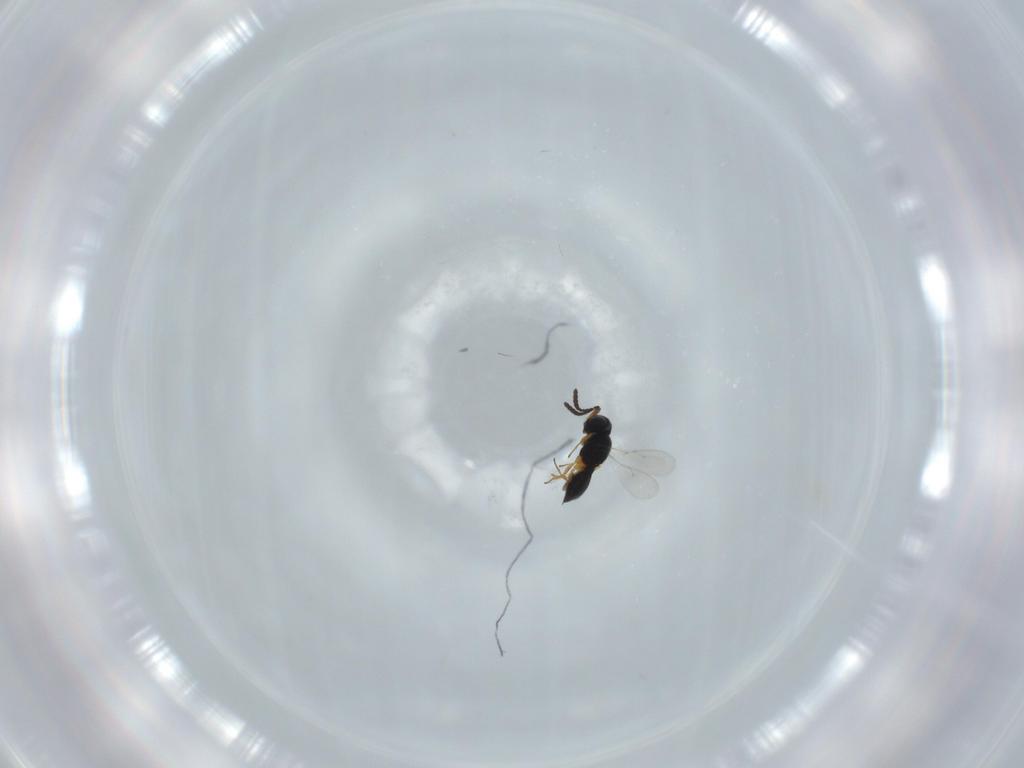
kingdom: Animalia
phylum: Arthropoda
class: Insecta
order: Hymenoptera
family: Scelionidae
